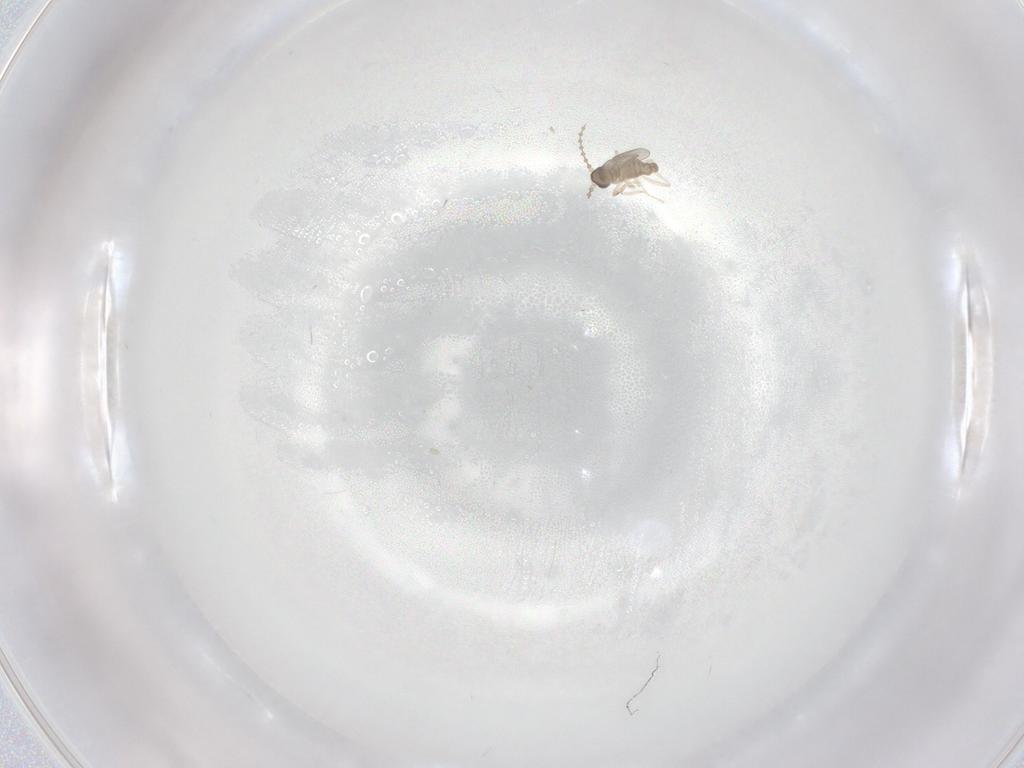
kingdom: Animalia
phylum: Arthropoda
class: Insecta
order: Diptera
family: Cecidomyiidae
